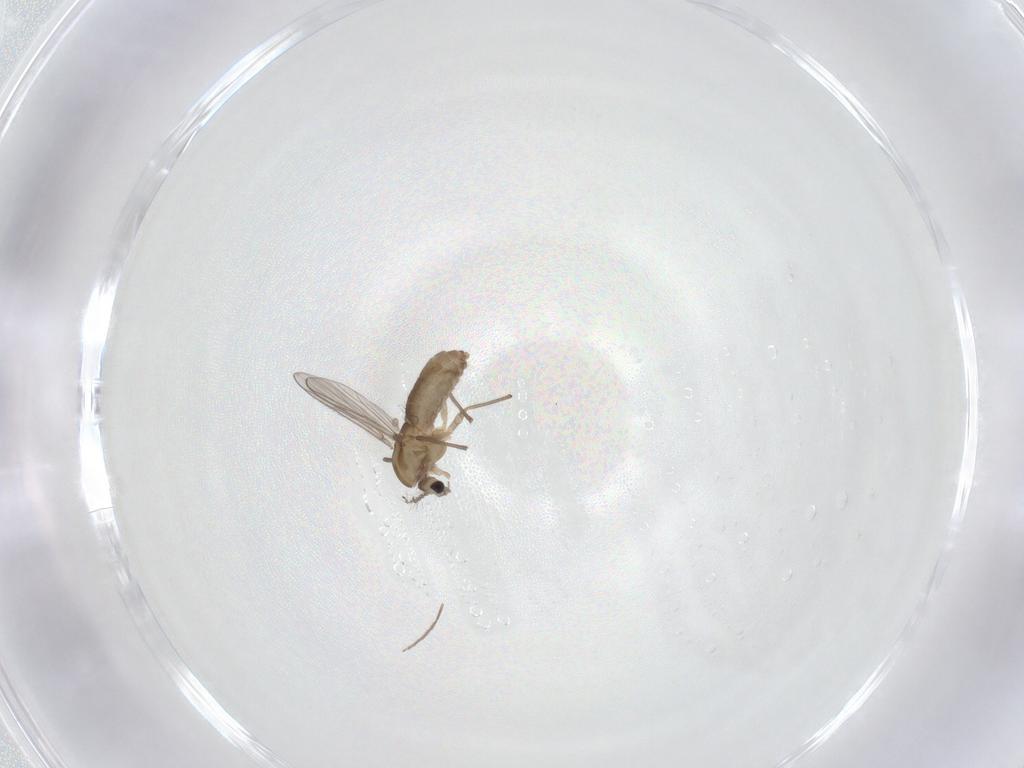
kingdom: Animalia
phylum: Arthropoda
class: Insecta
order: Diptera
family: Chironomidae
